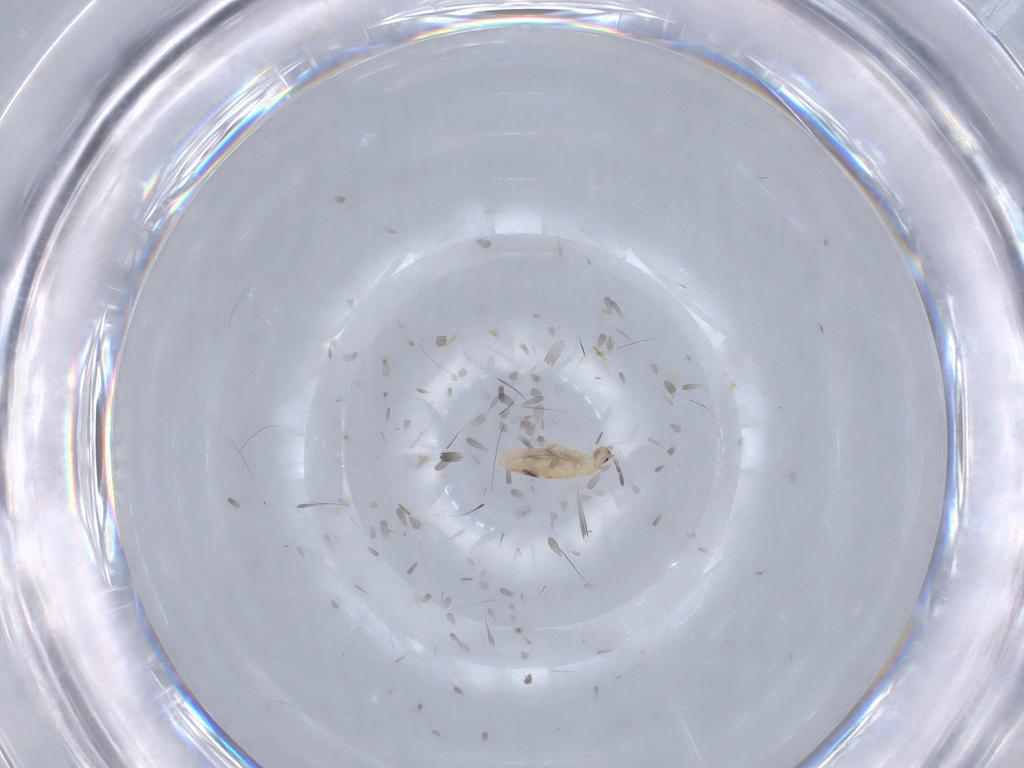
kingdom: Animalia
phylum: Arthropoda
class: Collembola
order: Entomobryomorpha
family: Entomobryidae
